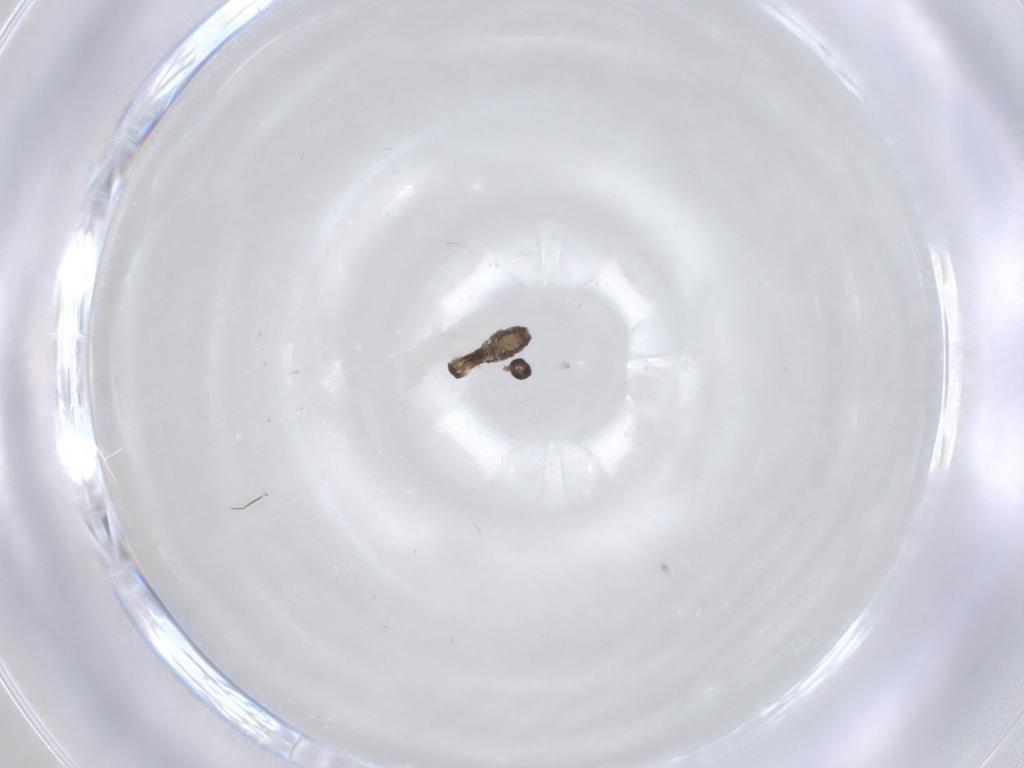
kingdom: Animalia
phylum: Arthropoda
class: Insecta
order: Diptera
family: Cecidomyiidae
